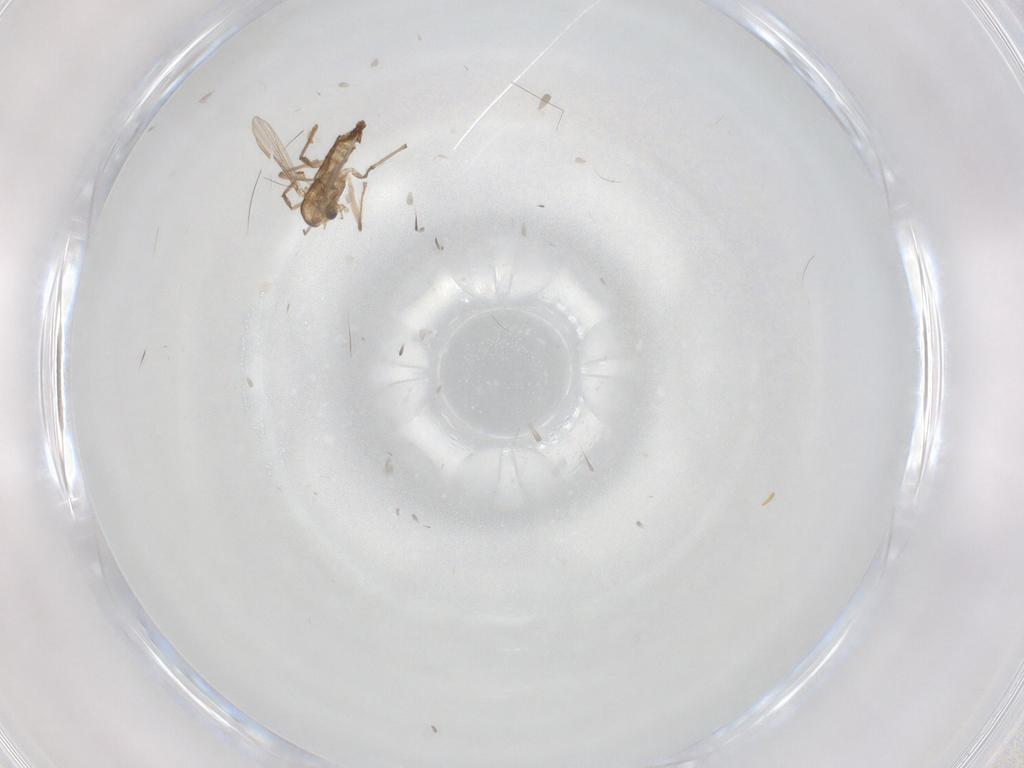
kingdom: Animalia
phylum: Arthropoda
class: Insecta
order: Diptera
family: Chironomidae
